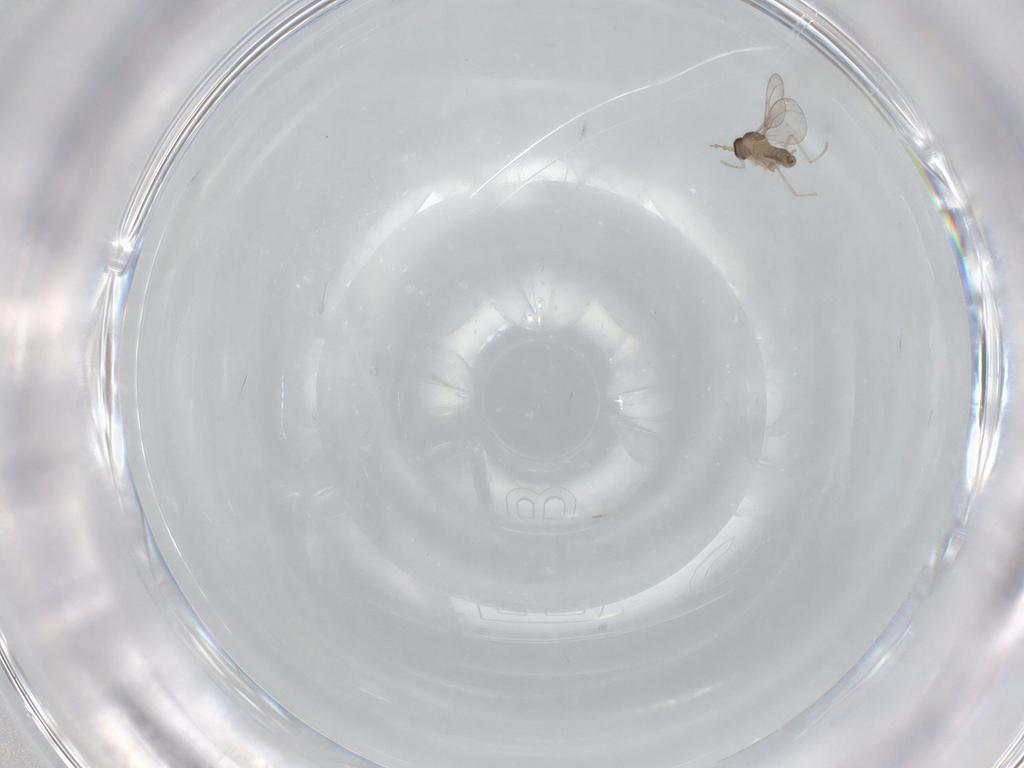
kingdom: Animalia
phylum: Arthropoda
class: Insecta
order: Diptera
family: Cecidomyiidae
